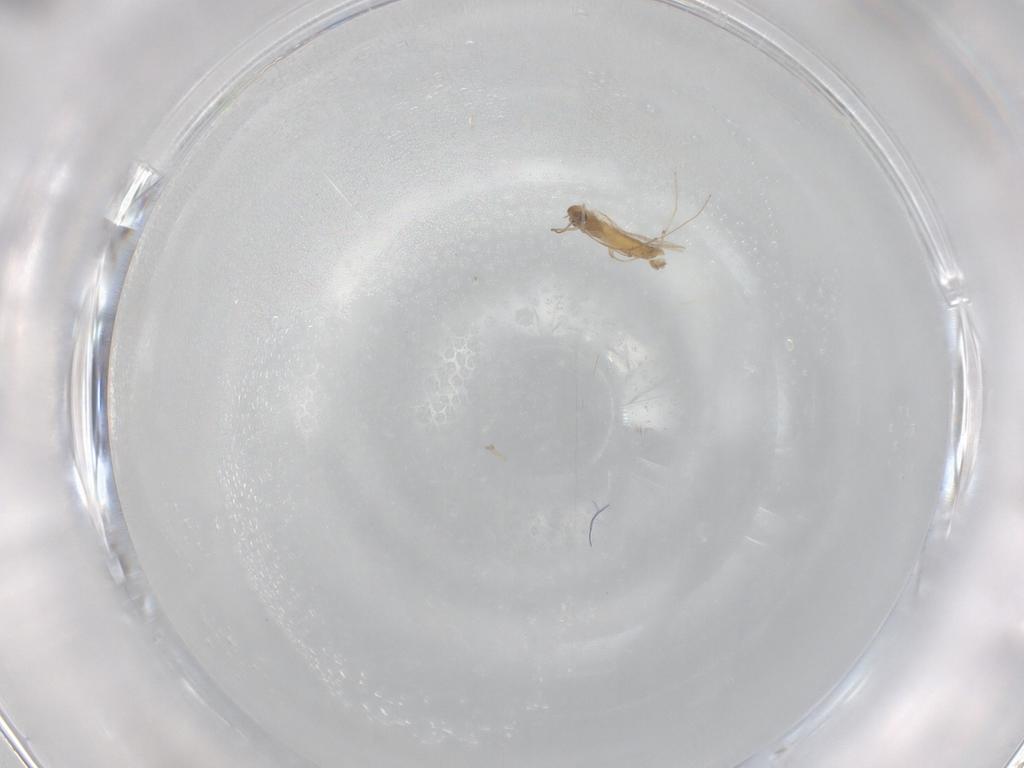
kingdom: Animalia
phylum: Arthropoda
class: Insecta
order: Diptera
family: Chironomidae
